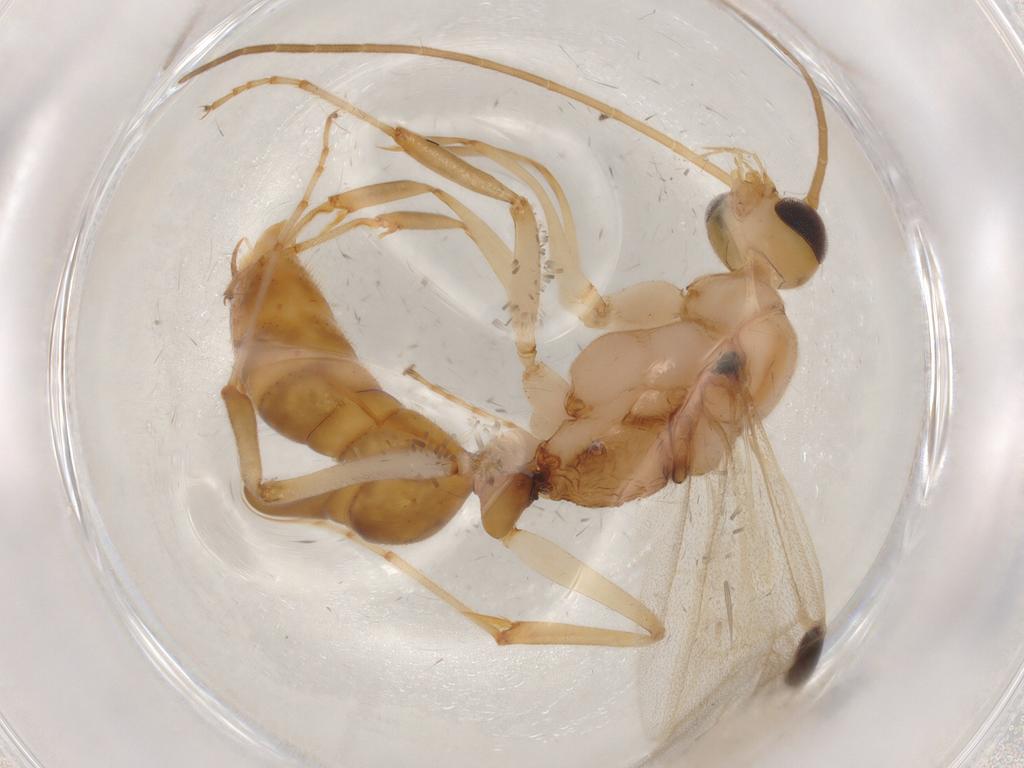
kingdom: Animalia
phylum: Arthropoda
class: Insecta
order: Hymenoptera
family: Formicidae
